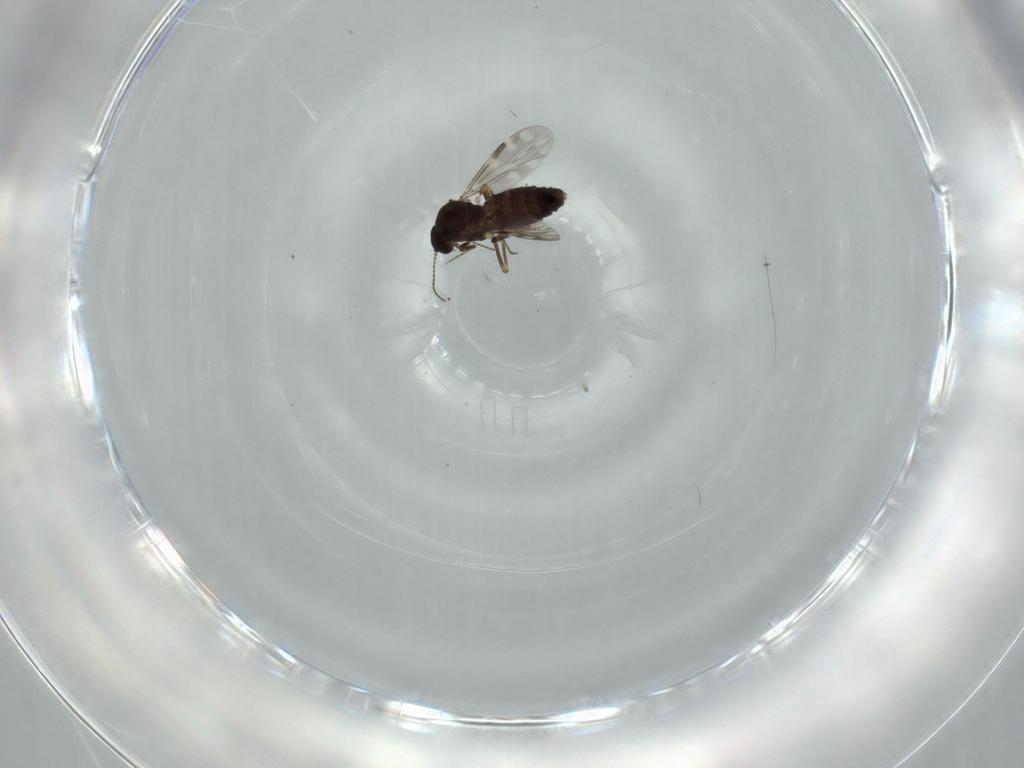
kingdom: Animalia
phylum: Arthropoda
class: Insecta
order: Diptera
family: Ceratopogonidae
